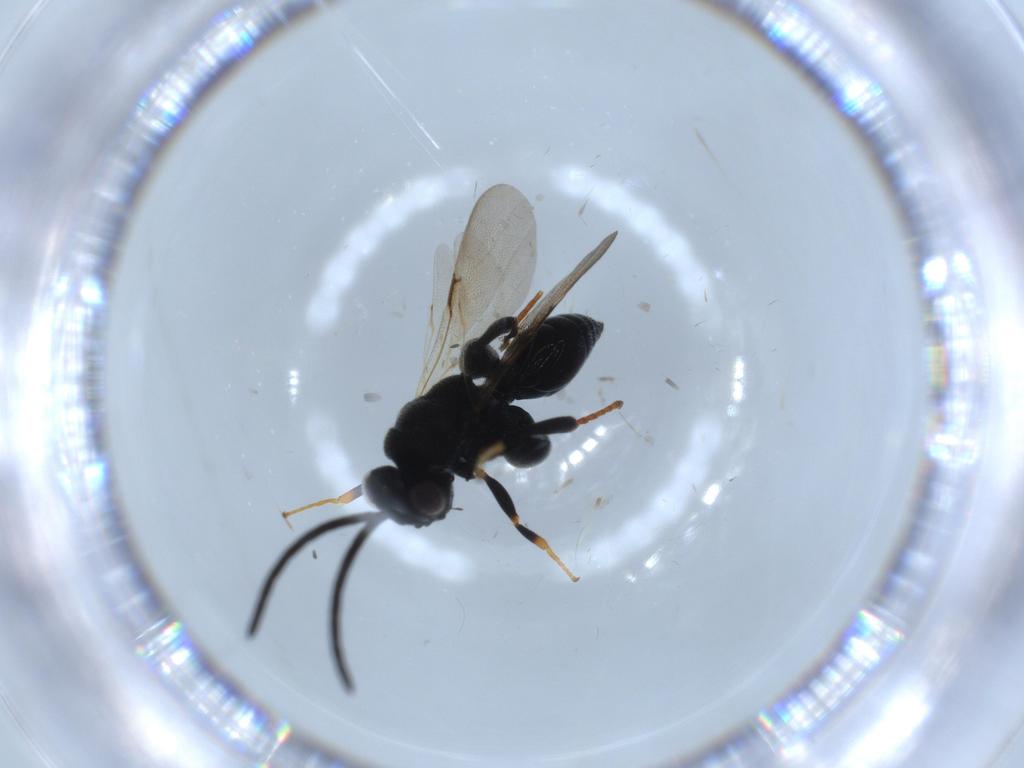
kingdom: Animalia
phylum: Arthropoda
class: Insecta
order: Hymenoptera
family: Bethylidae
